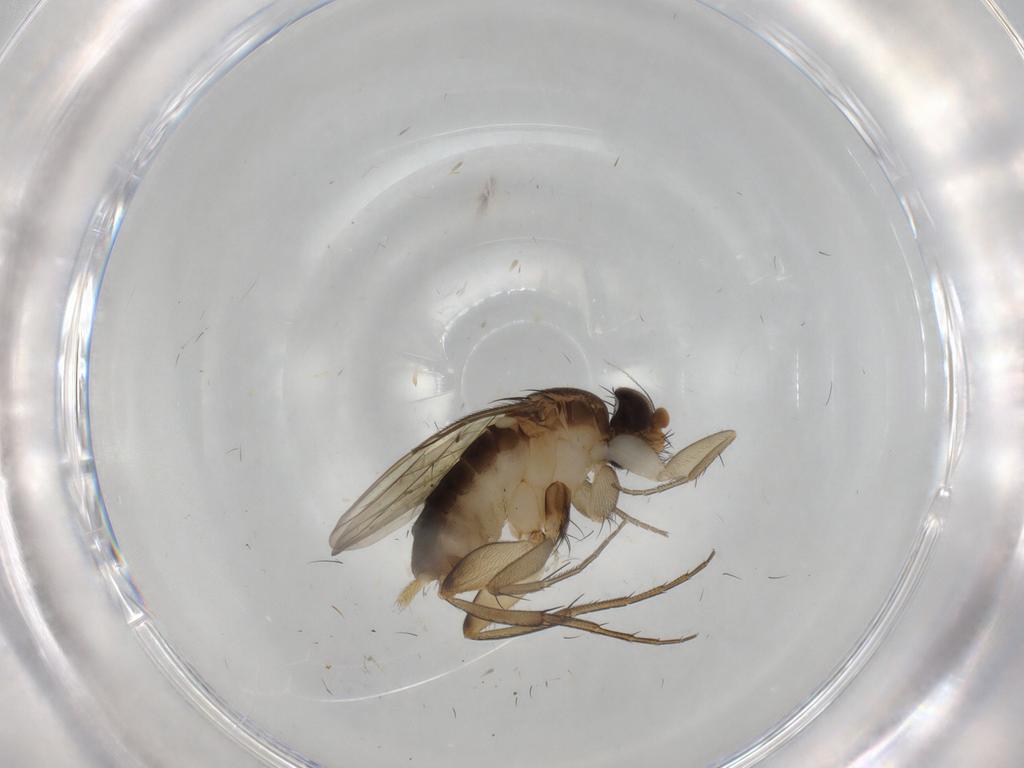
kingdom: Animalia
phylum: Arthropoda
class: Insecta
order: Diptera
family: Phoridae
